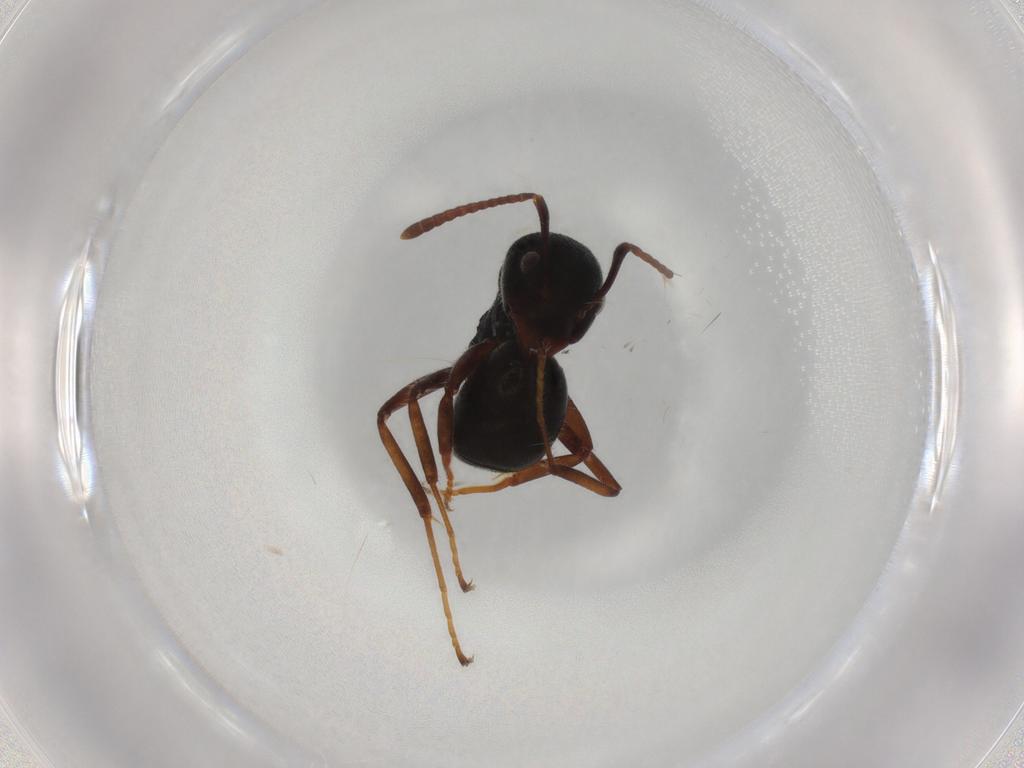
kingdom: Animalia
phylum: Arthropoda
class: Insecta
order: Hymenoptera
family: Formicidae
